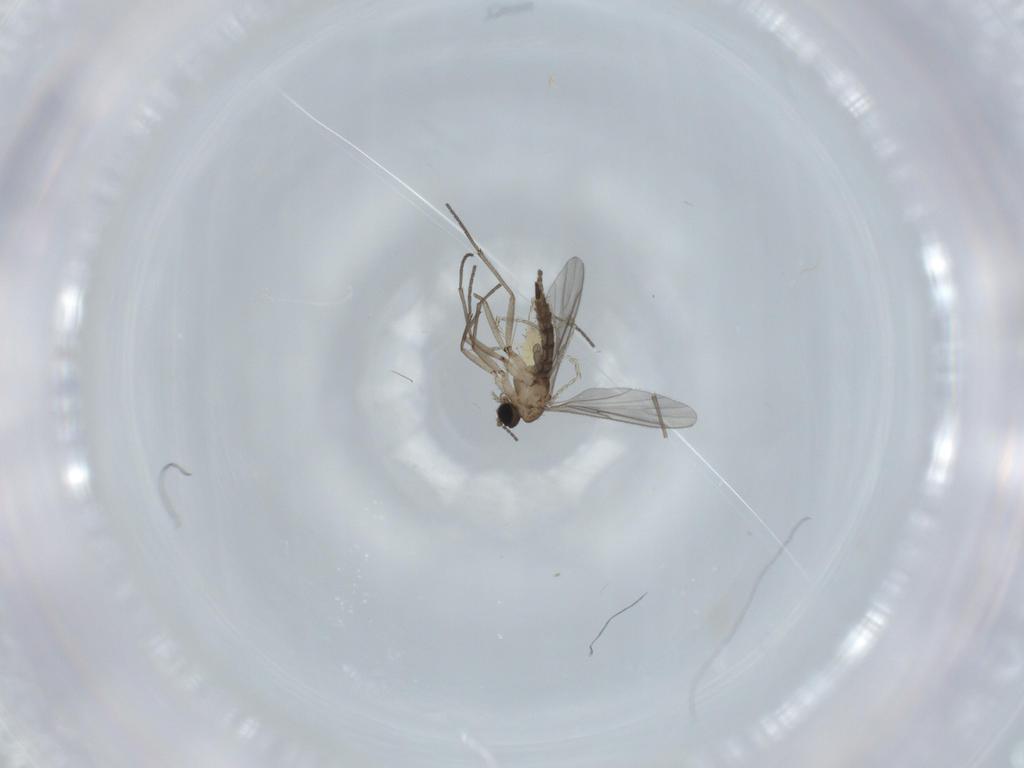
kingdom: Animalia
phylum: Arthropoda
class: Insecta
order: Diptera
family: Sciaridae
